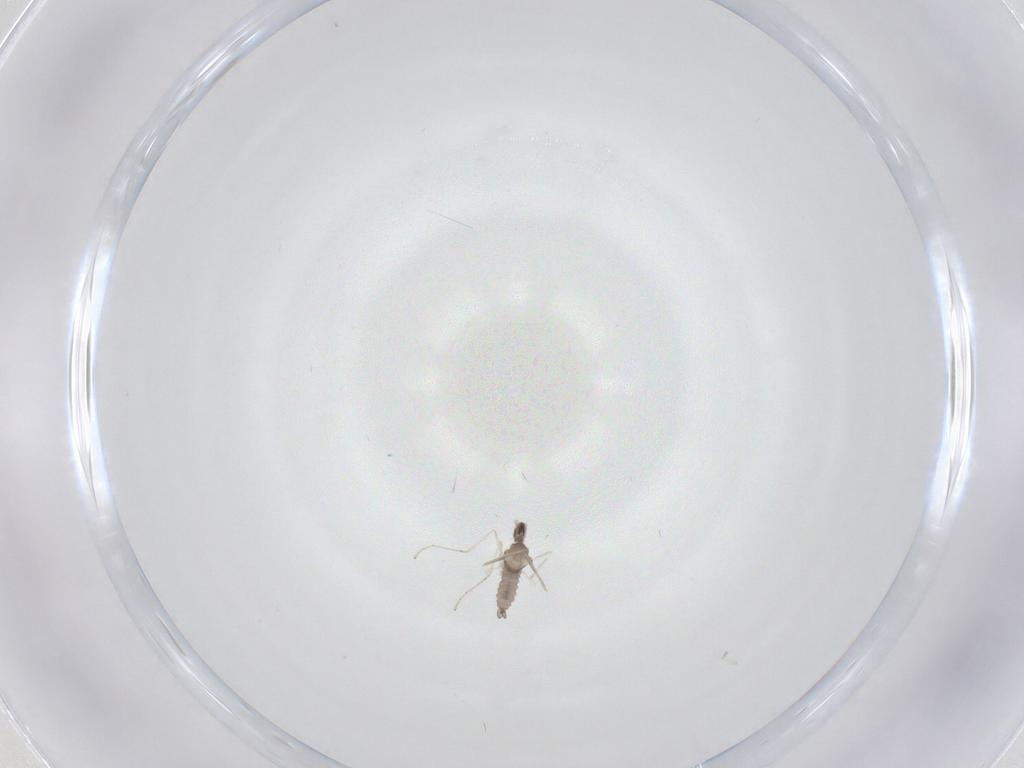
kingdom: Animalia
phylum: Arthropoda
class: Insecta
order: Diptera
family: Cecidomyiidae
